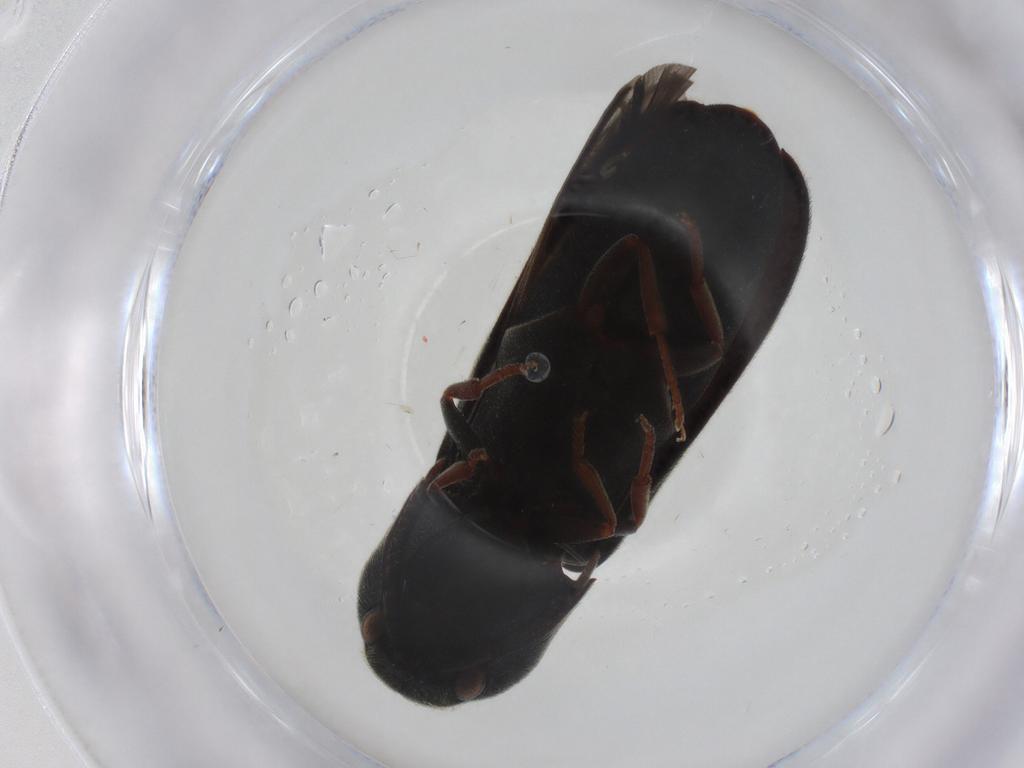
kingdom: Animalia
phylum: Arthropoda
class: Insecta
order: Coleoptera
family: Eucnemidae
